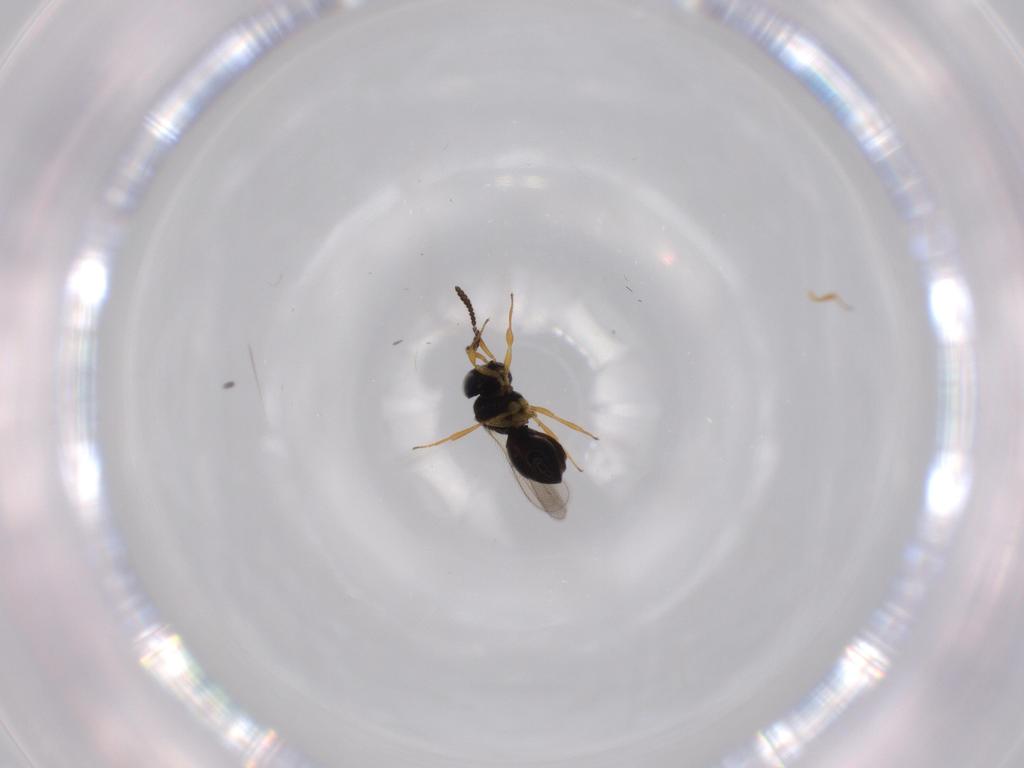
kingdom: Animalia
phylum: Arthropoda
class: Insecta
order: Hymenoptera
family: Scelionidae
